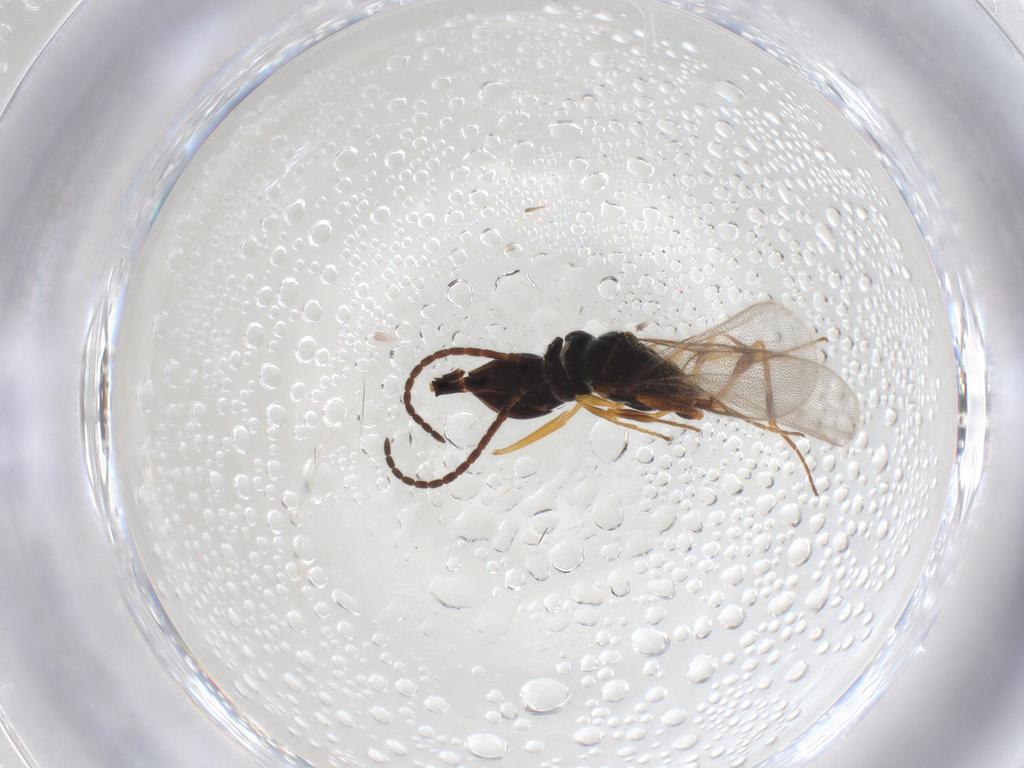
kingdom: Animalia
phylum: Arthropoda
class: Insecta
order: Hymenoptera
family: Ichneumonidae
